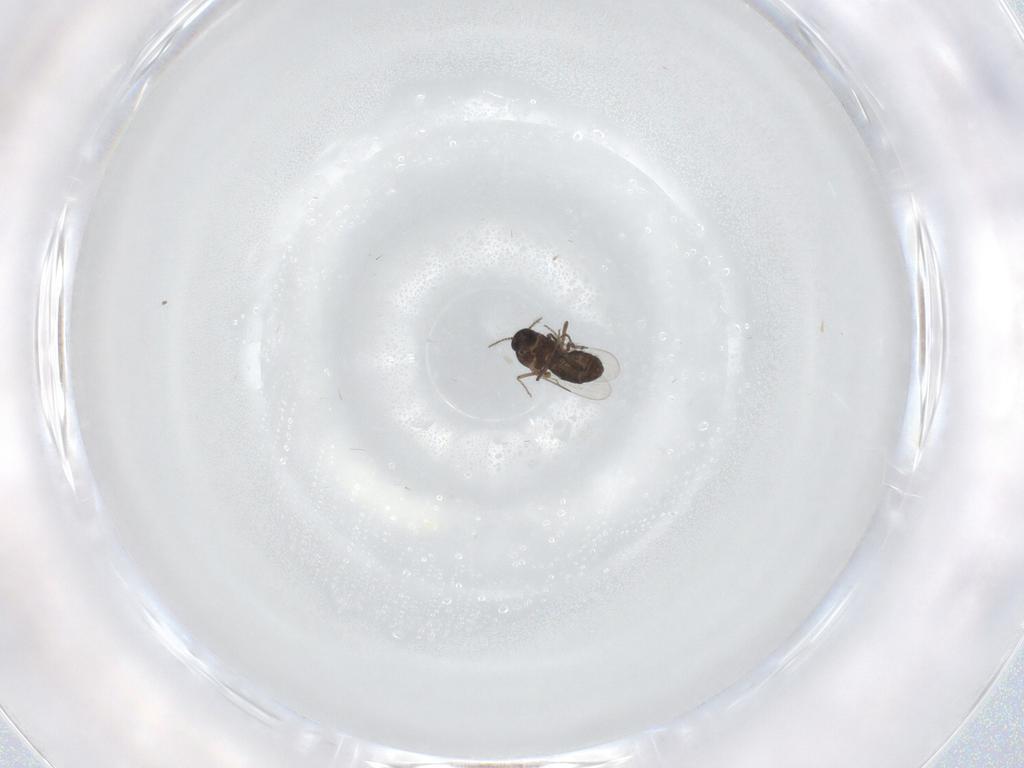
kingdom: Animalia
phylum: Arthropoda
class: Insecta
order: Diptera
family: Ceratopogonidae
